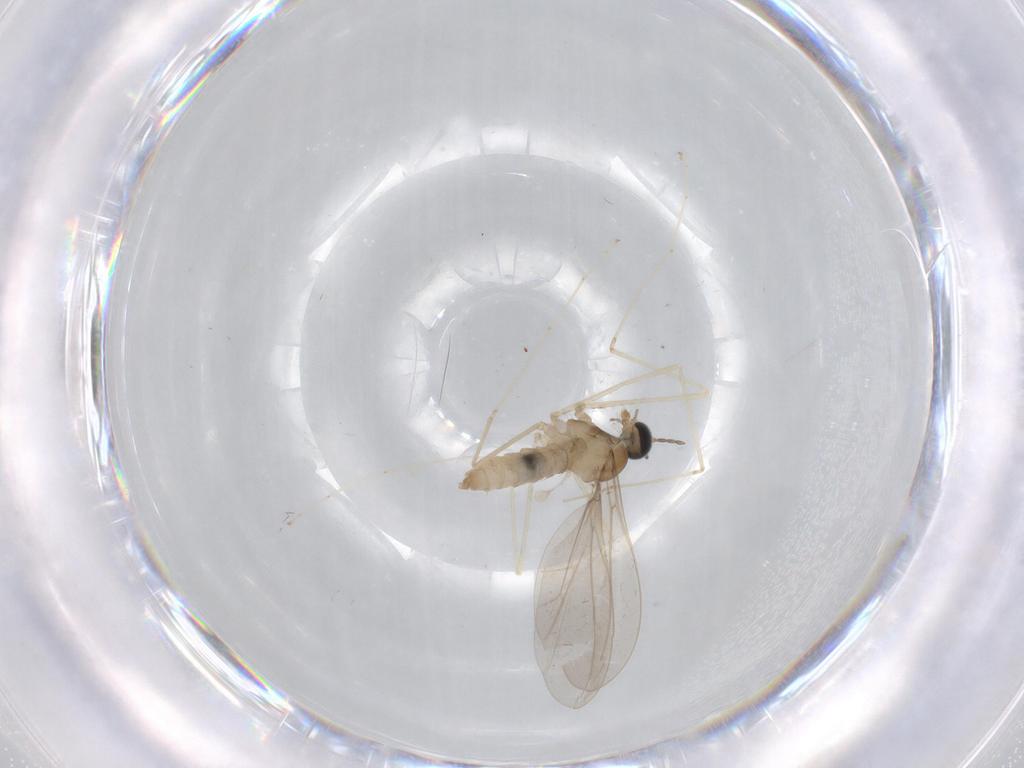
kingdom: Animalia
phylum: Arthropoda
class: Insecta
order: Diptera
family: Cecidomyiidae
